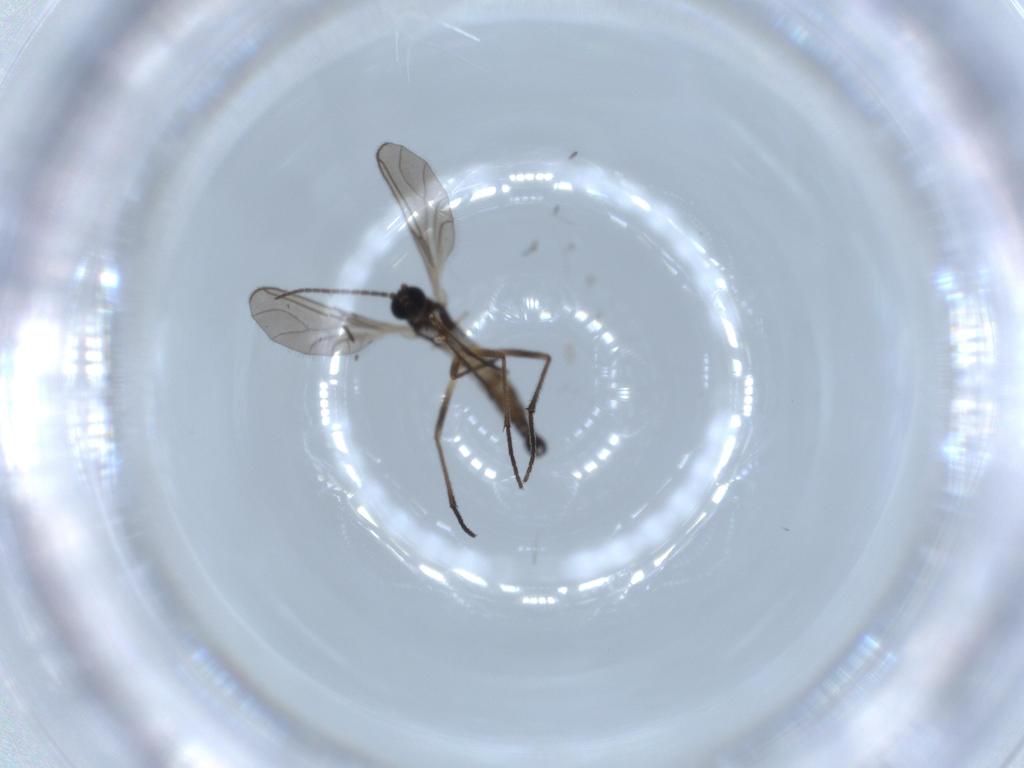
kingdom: Animalia
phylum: Arthropoda
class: Insecta
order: Diptera
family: Sciaridae
